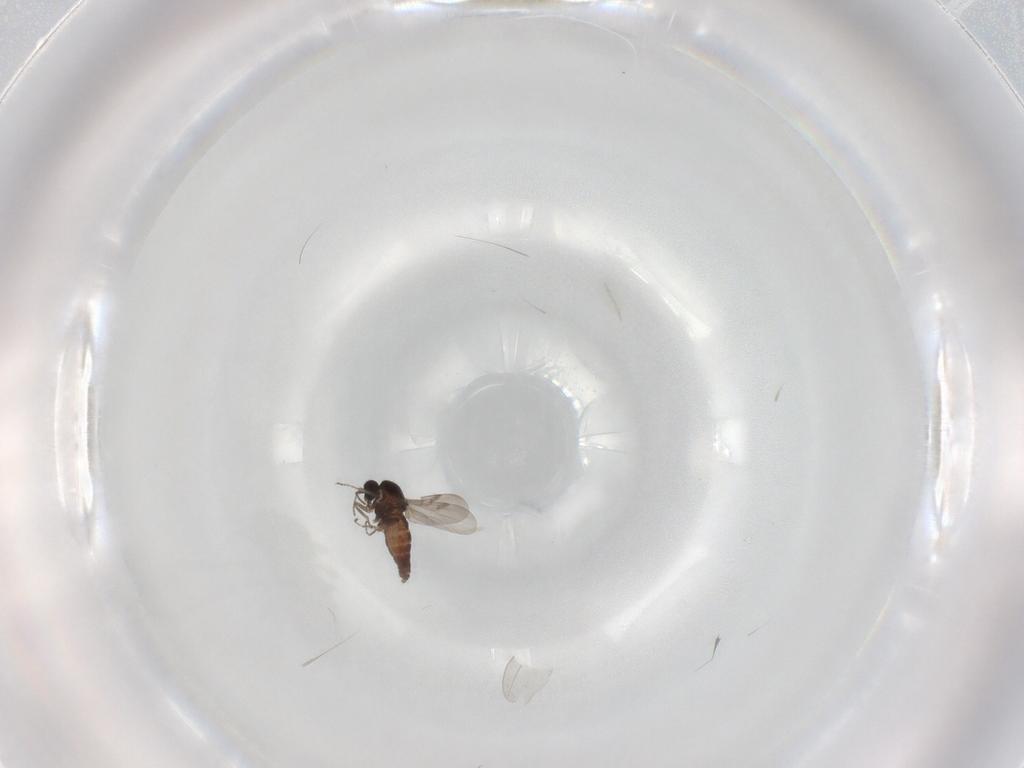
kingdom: Animalia
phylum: Arthropoda
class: Insecta
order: Diptera
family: Ceratopogonidae
